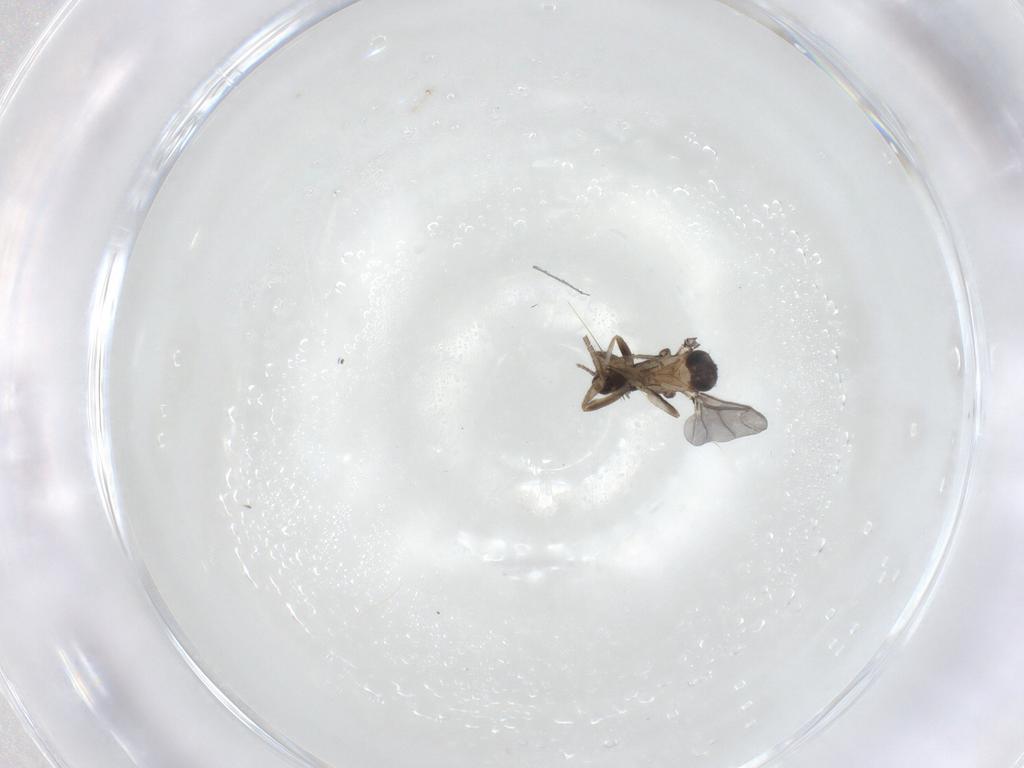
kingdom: Animalia
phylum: Arthropoda
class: Insecta
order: Diptera
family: Phoridae
